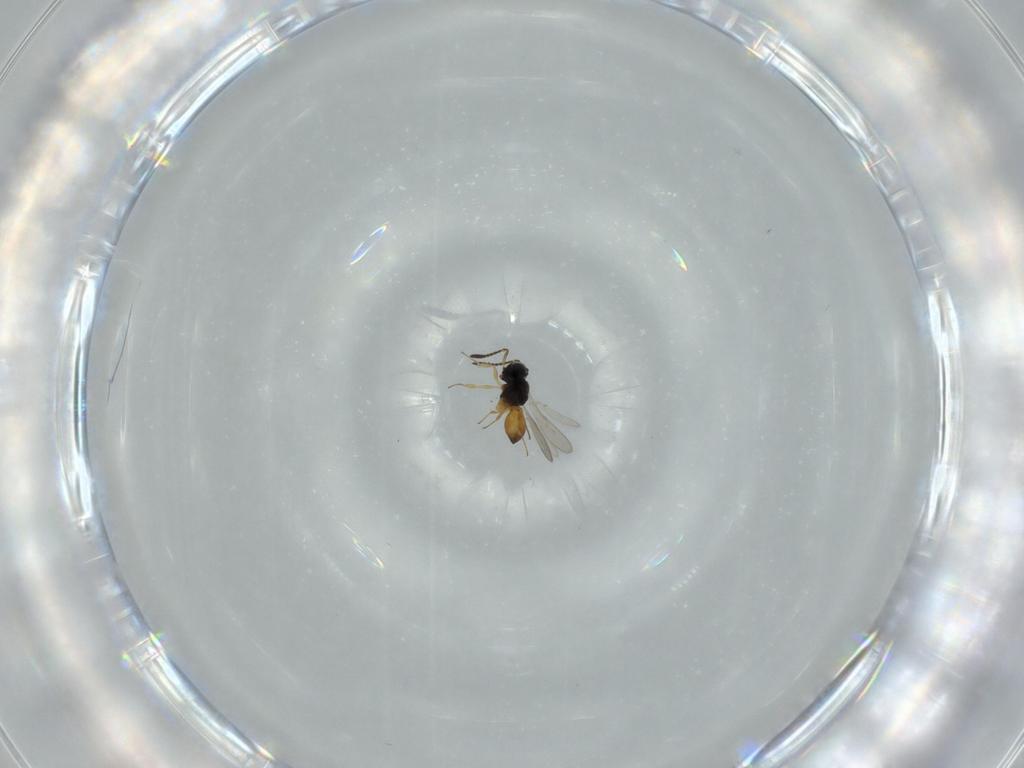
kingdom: Animalia
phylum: Arthropoda
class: Insecta
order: Hymenoptera
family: Scelionidae
